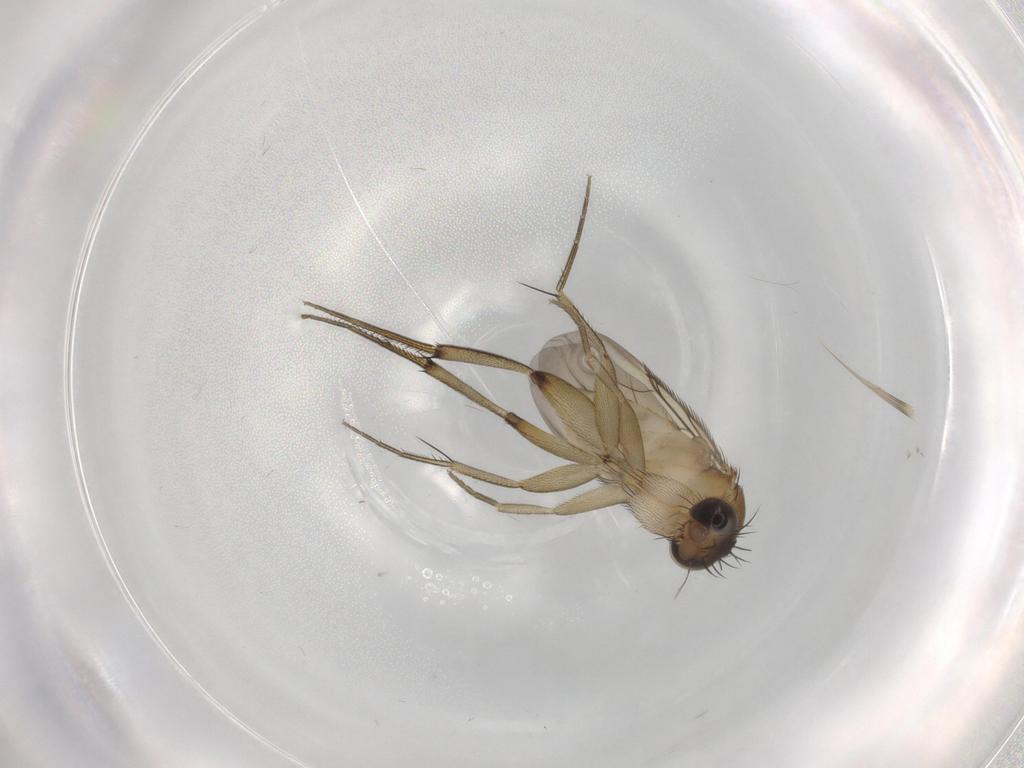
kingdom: Animalia
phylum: Arthropoda
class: Insecta
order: Diptera
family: Phoridae
